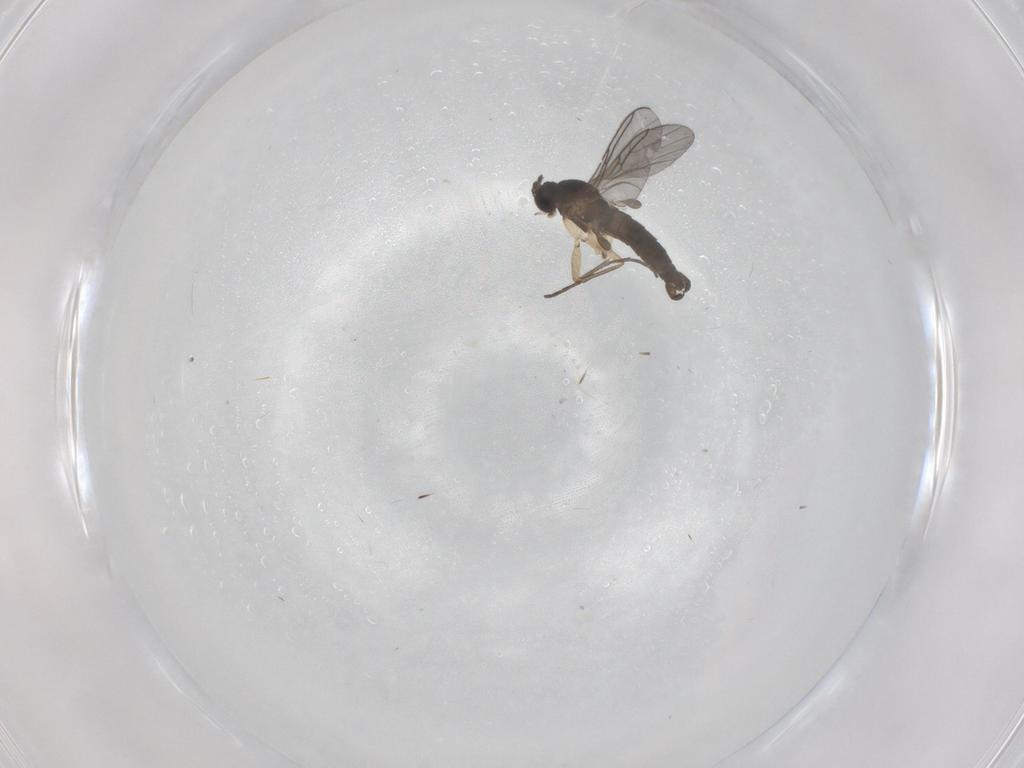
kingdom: Animalia
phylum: Arthropoda
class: Insecta
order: Diptera
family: Sciaridae
